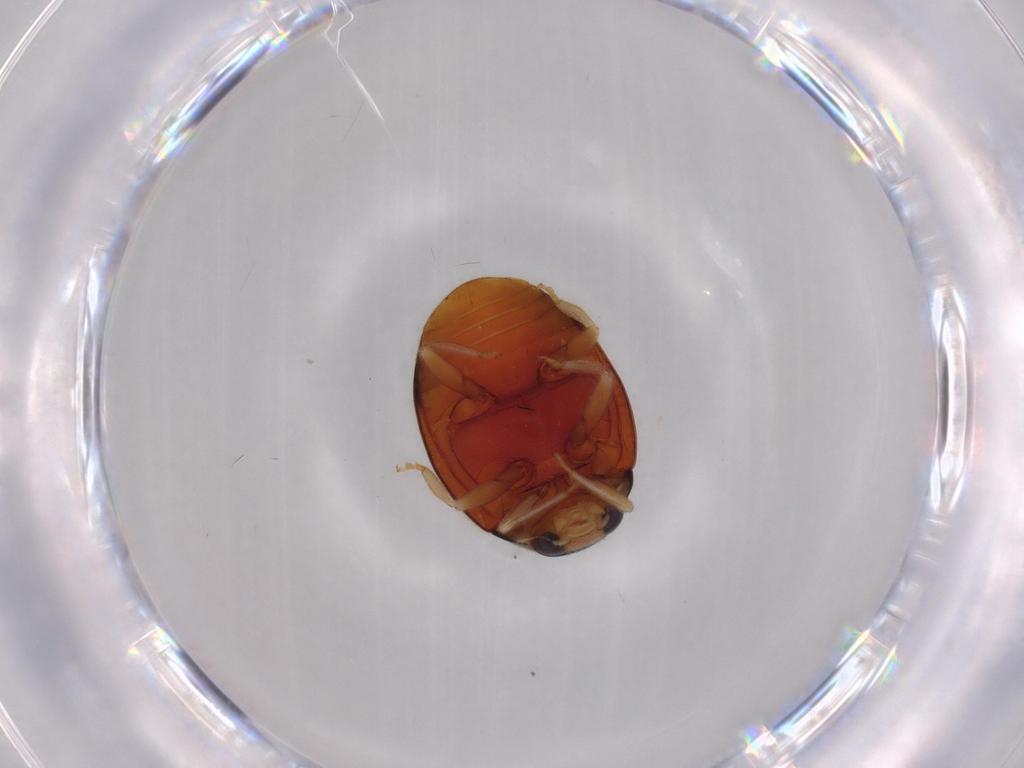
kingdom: Animalia
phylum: Arthropoda
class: Insecta
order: Coleoptera
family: Coccinellidae
